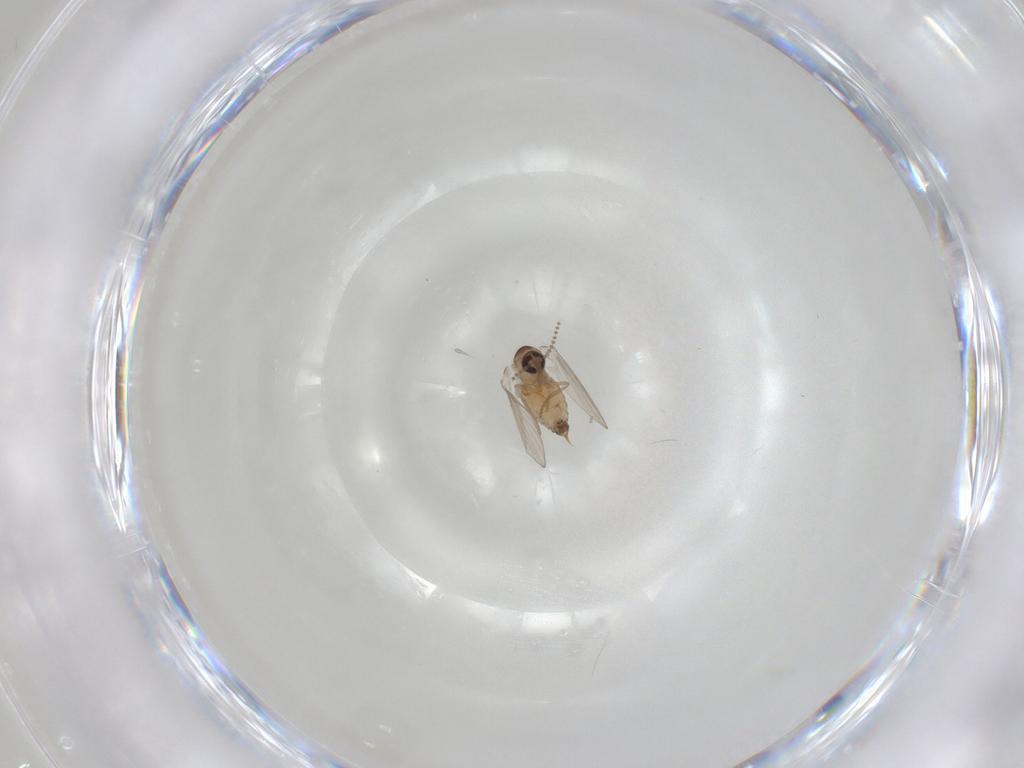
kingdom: Animalia
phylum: Arthropoda
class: Insecta
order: Diptera
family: Psychodidae
